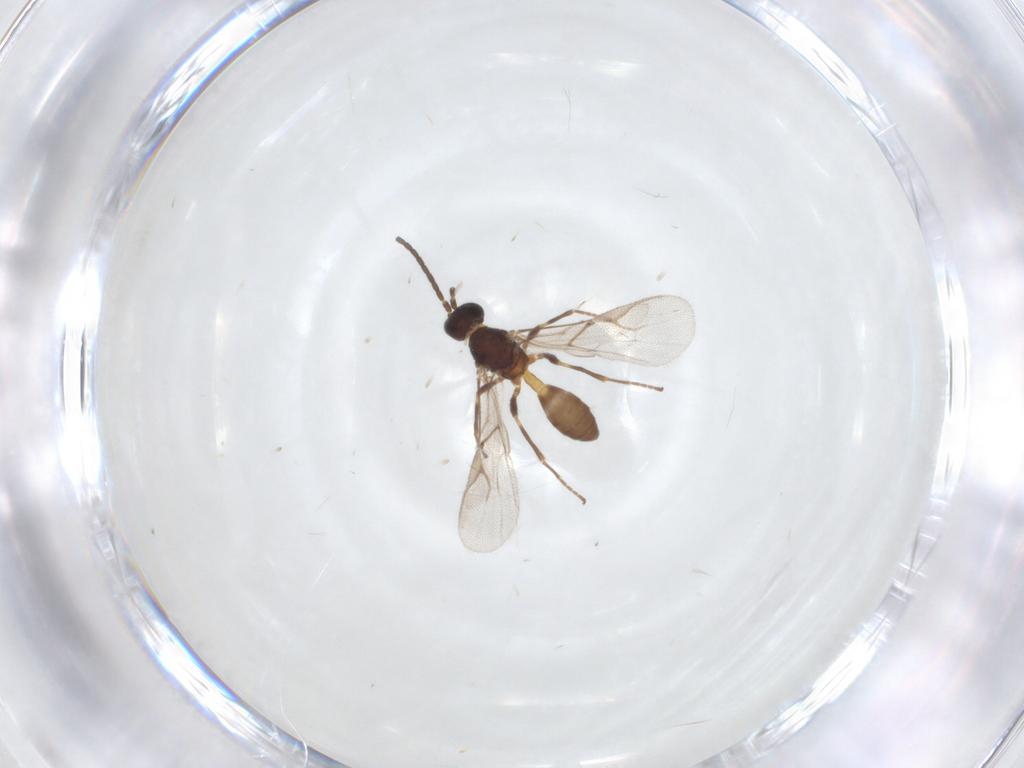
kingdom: Animalia
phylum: Arthropoda
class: Insecta
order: Hymenoptera
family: Braconidae
